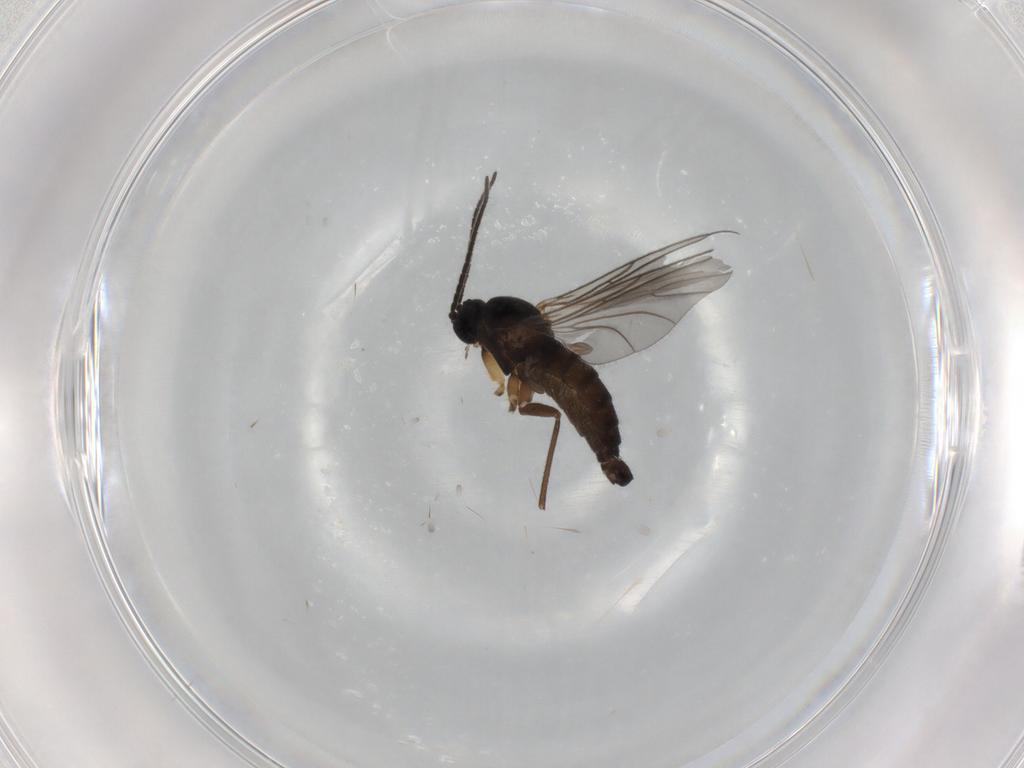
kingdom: Animalia
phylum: Arthropoda
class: Insecta
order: Diptera
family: Sciaridae
